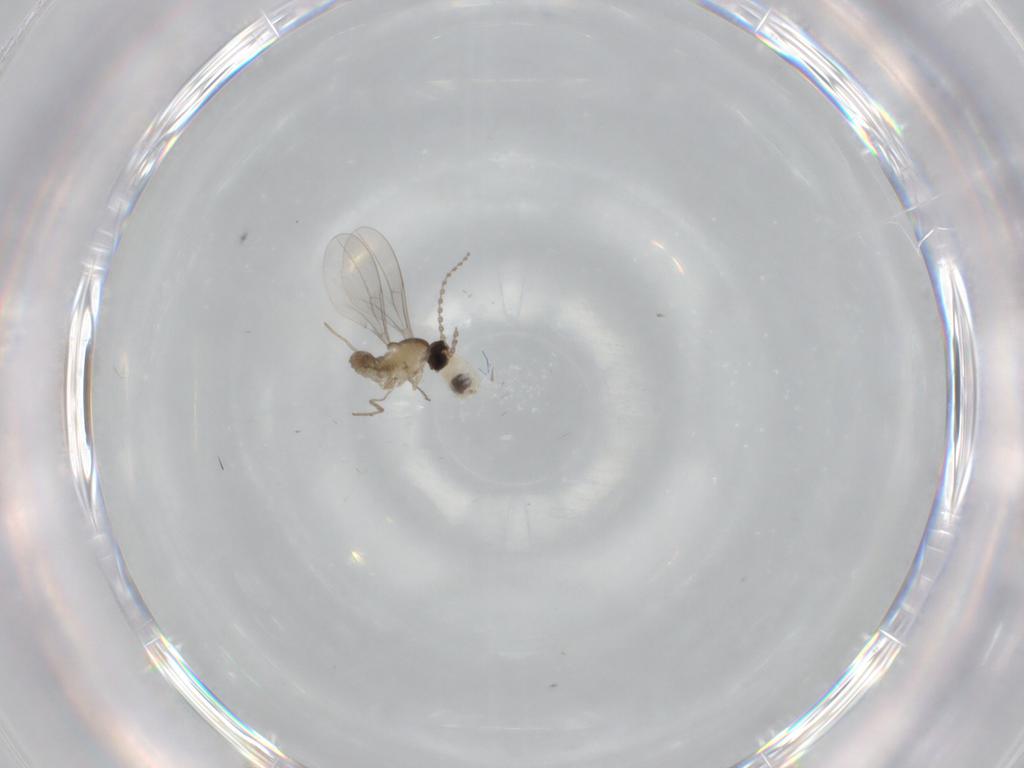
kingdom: Animalia
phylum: Arthropoda
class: Insecta
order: Diptera
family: Cecidomyiidae
